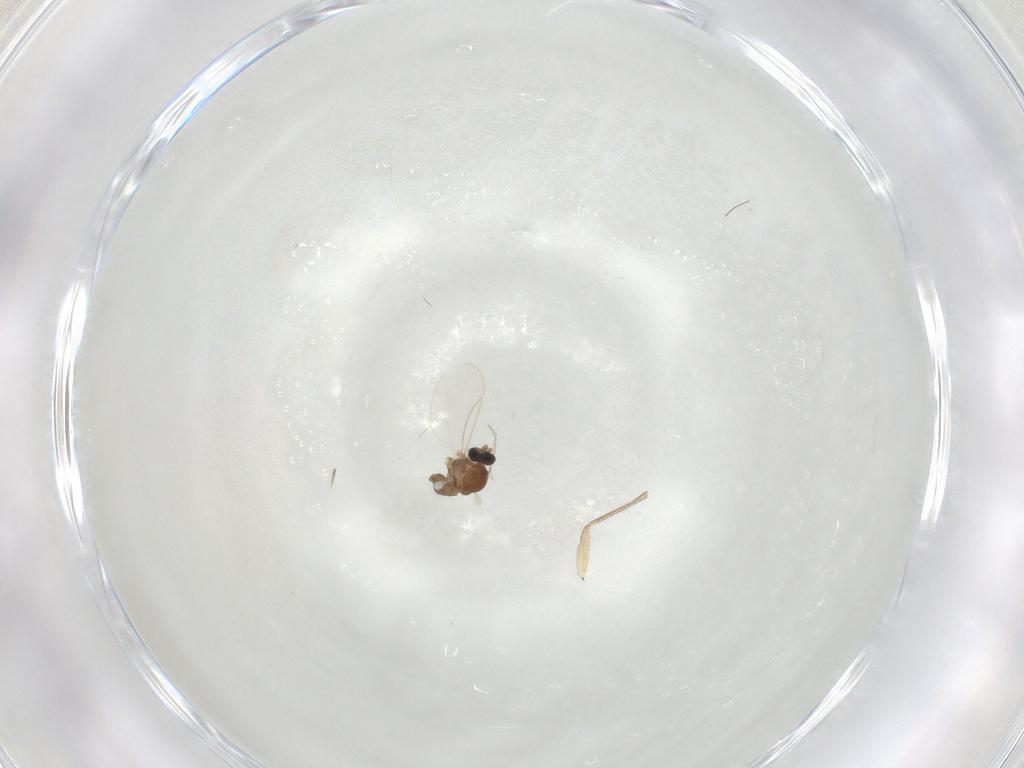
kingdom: Animalia
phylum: Arthropoda
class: Insecta
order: Diptera
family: Cecidomyiidae
